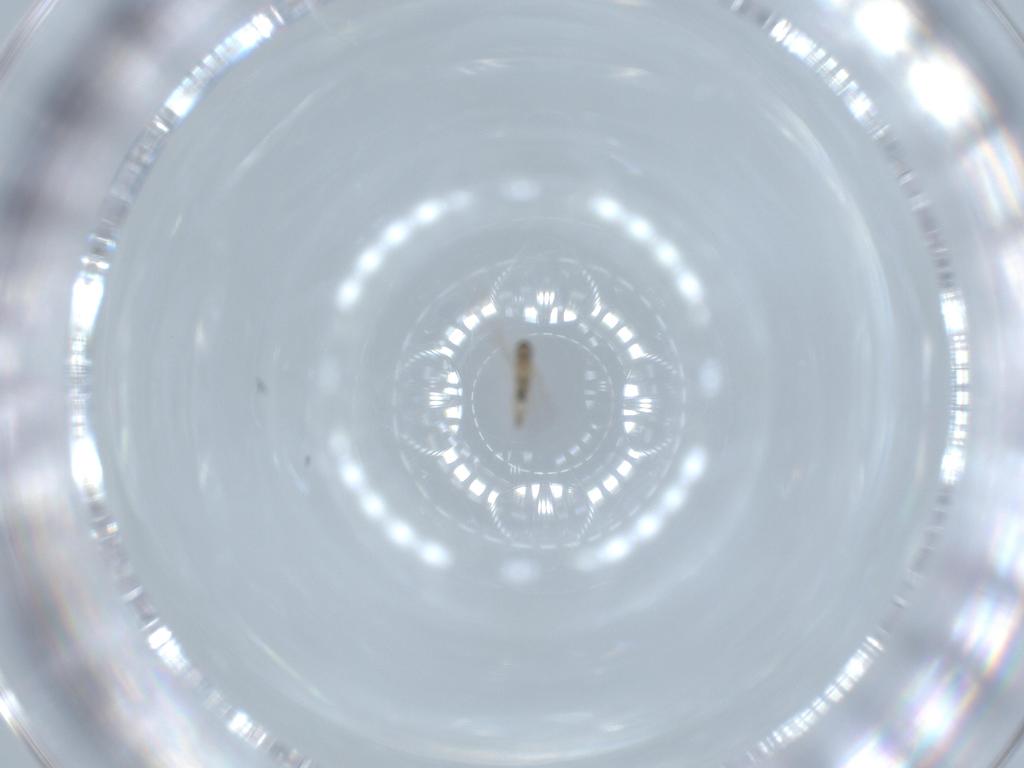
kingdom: Animalia
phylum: Arthropoda
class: Insecta
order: Diptera
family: Cecidomyiidae
